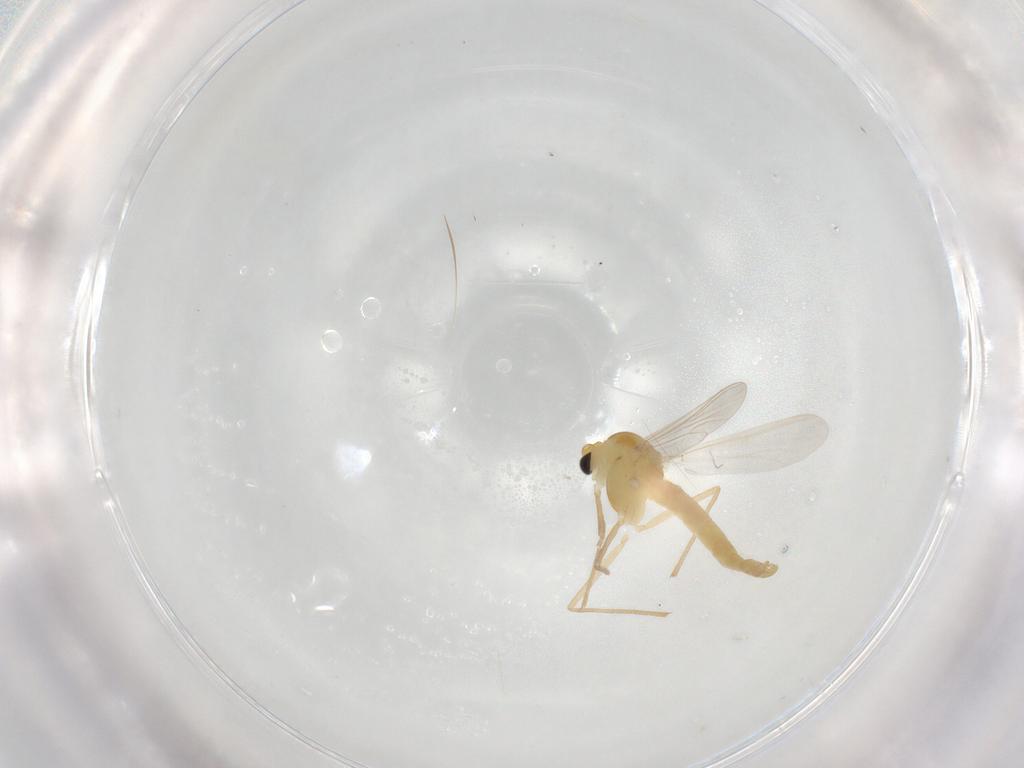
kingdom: Animalia
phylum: Arthropoda
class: Insecta
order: Diptera
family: Chironomidae
